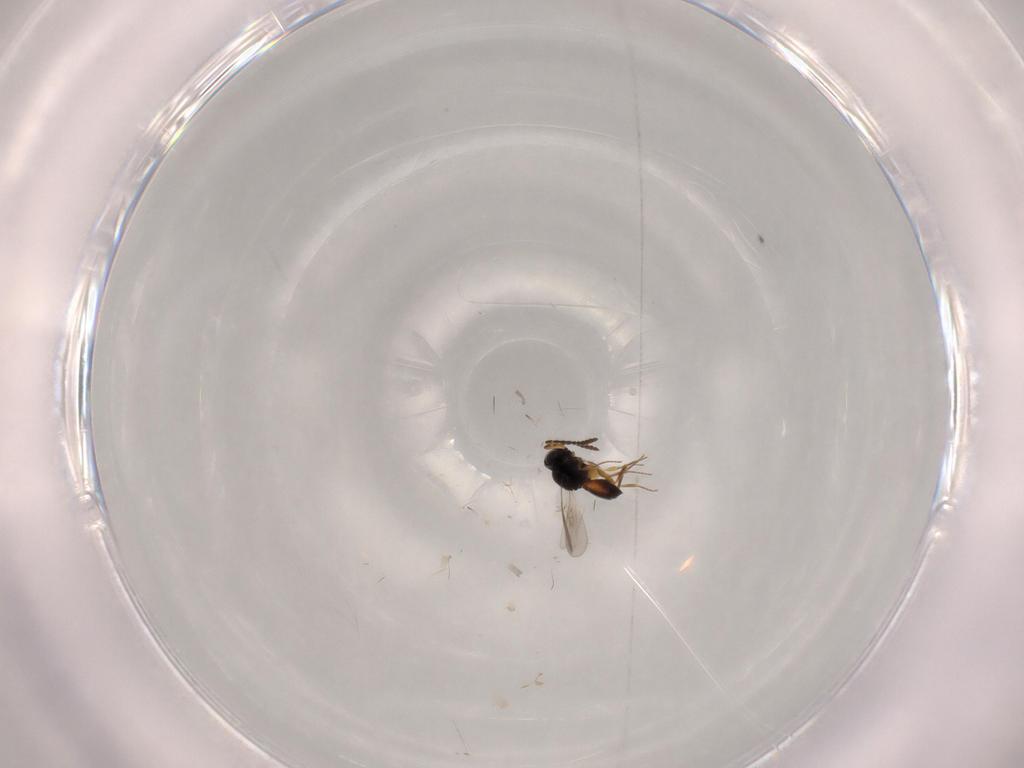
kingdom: Animalia
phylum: Arthropoda
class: Insecta
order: Hymenoptera
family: Scelionidae
